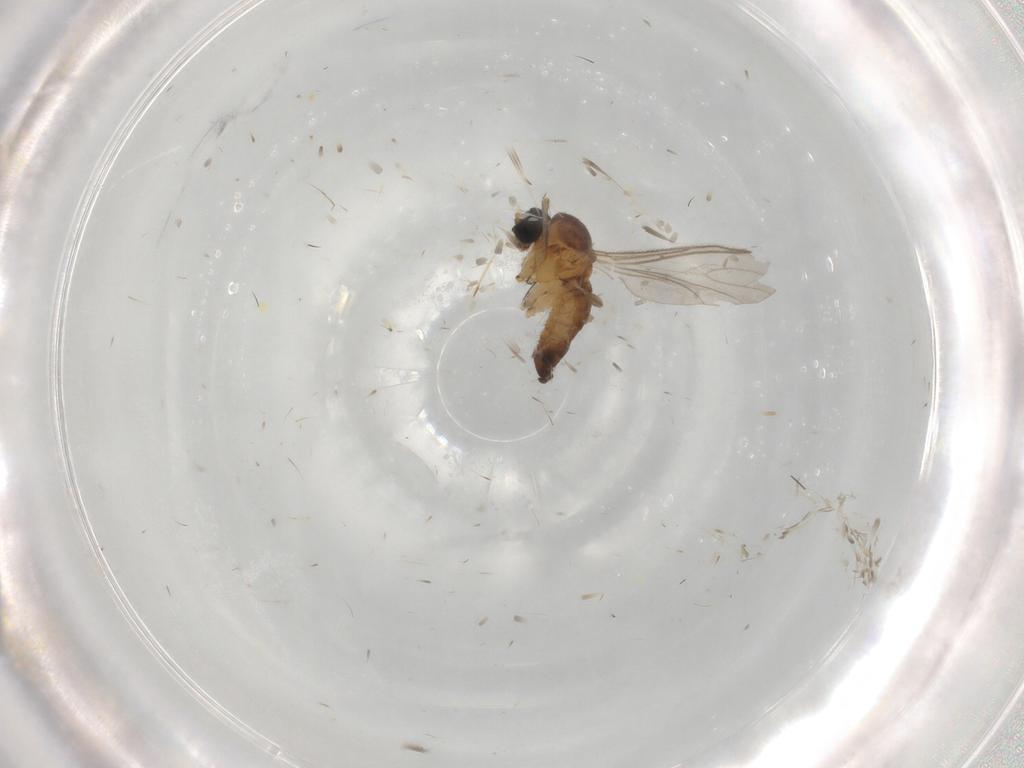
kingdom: Animalia
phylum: Arthropoda
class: Insecta
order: Diptera
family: Sciaridae
